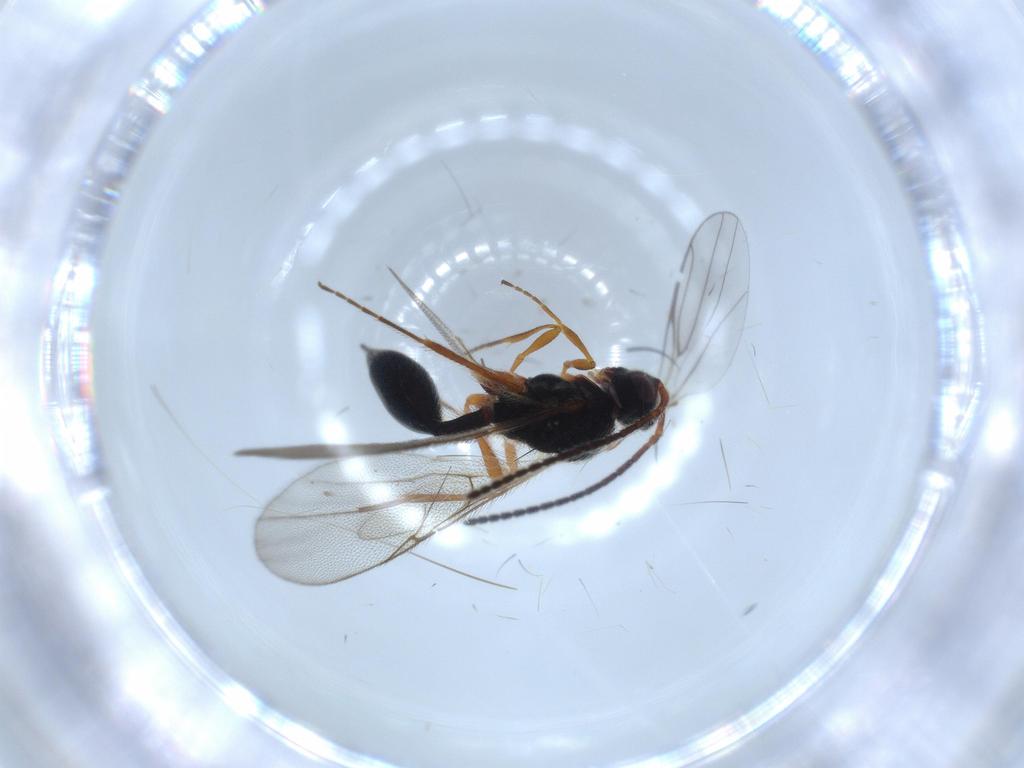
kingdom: Animalia
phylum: Arthropoda
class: Insecta
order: Hymenoptera
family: Diapriidae
